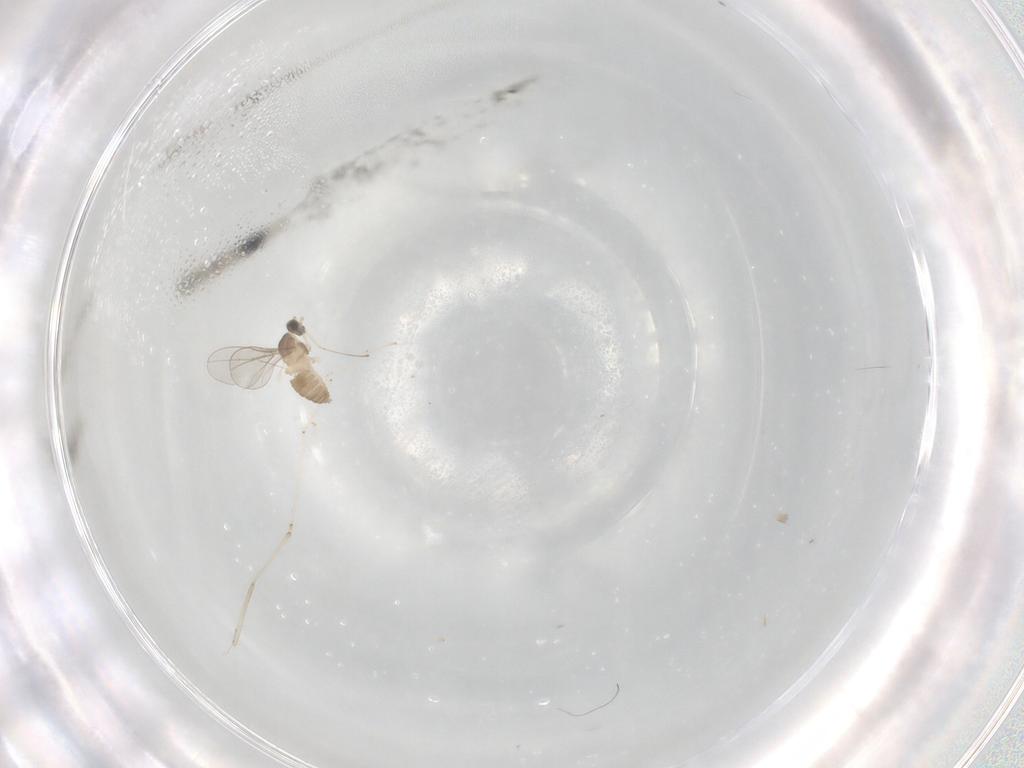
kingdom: Animalia
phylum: Arthropoda
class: Insecta
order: Diptera
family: Cecidomyiidae
